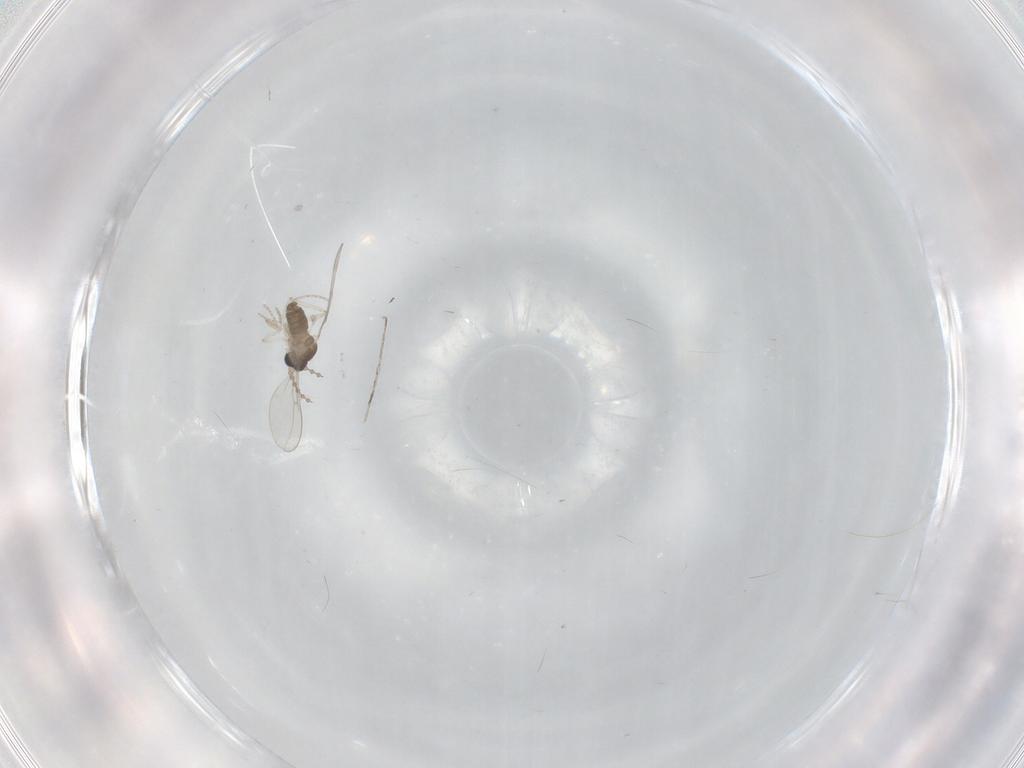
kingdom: Animalia
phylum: Arthropoda
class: Insecta
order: Diptera
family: Cecidomyiidae
